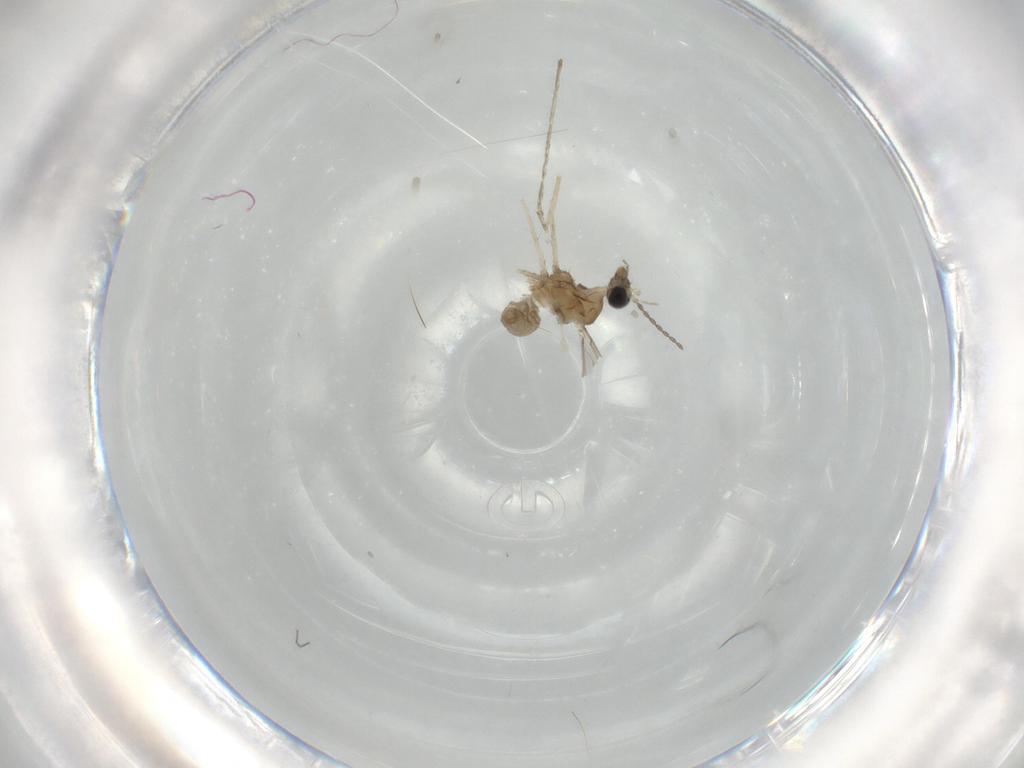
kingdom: Animalia
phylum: Arthropoda
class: Insecta
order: Diptera
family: Cecidomyiidae
